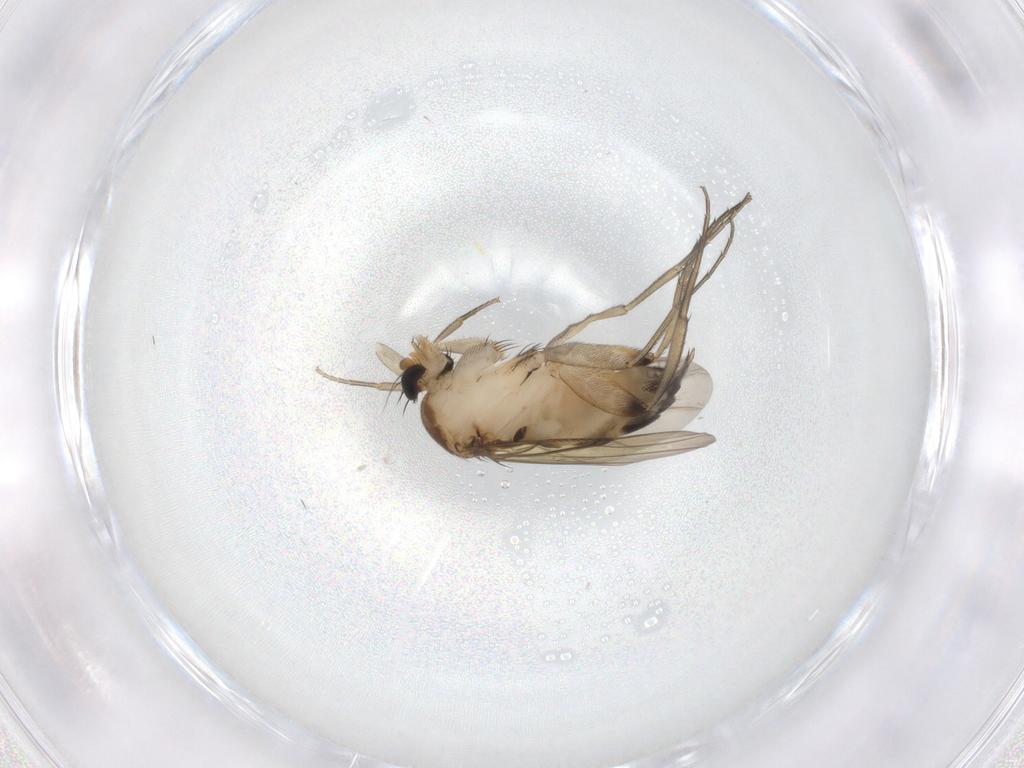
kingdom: Animalia
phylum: Arthropoda
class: Insecta
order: Diptera
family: Phoridae
